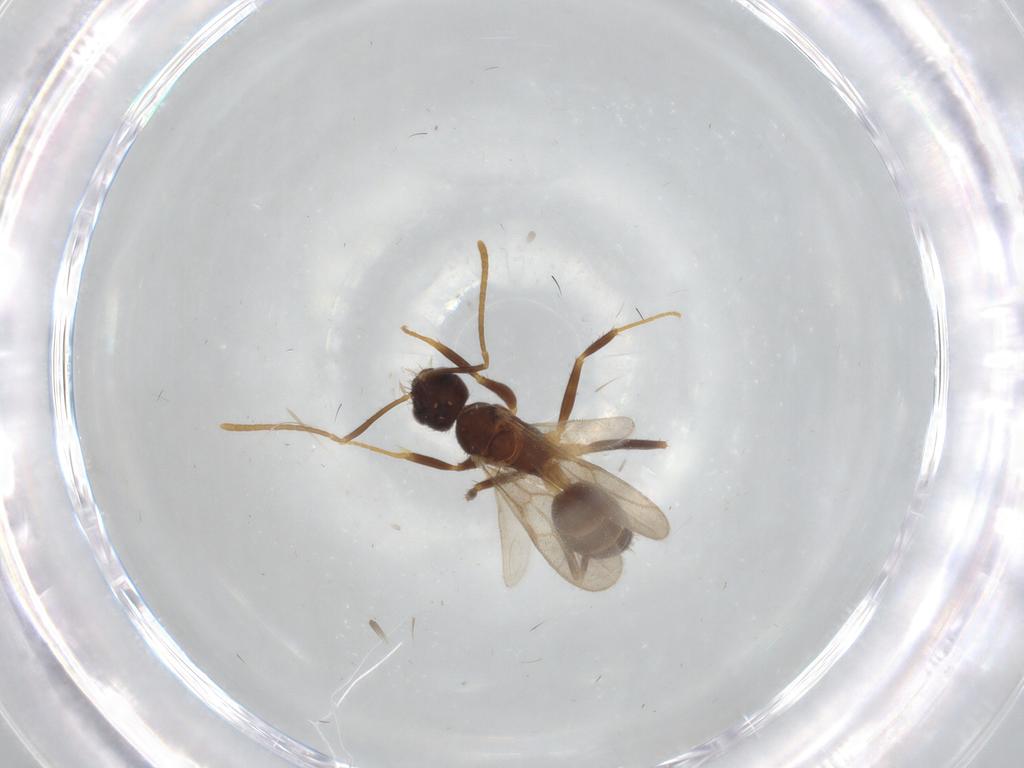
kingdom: Animalia
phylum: Arthropoda
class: Insecta
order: Hymenoptera
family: Formicidae
